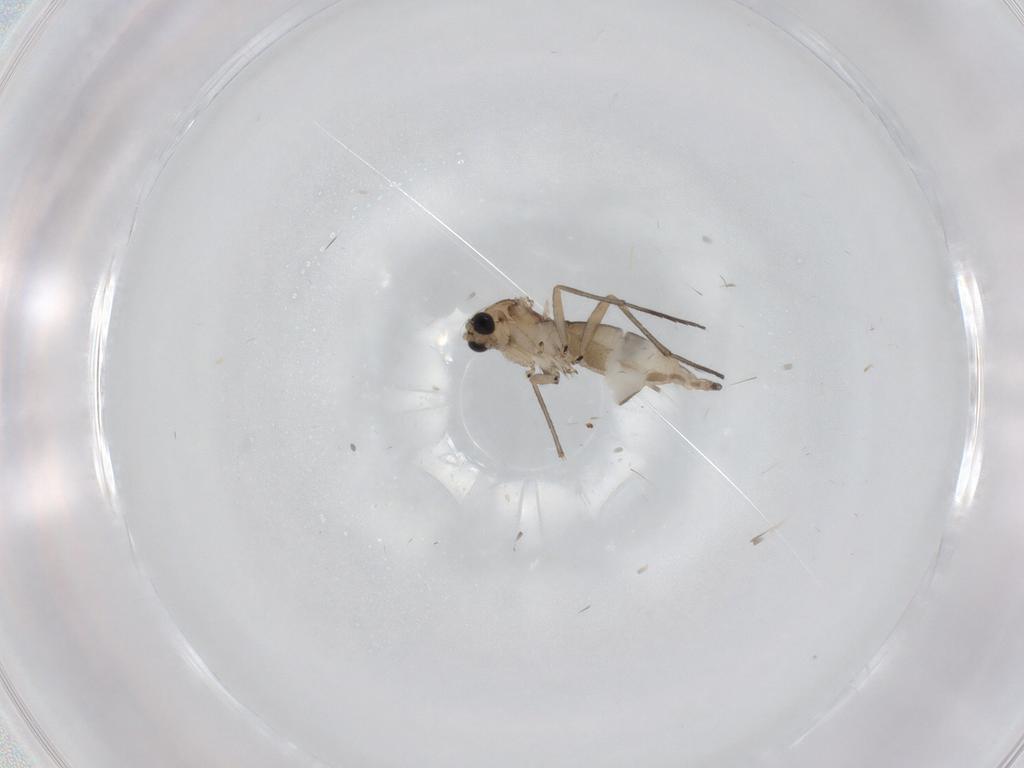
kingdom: Animalia
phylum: Arthropoda
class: Insecta
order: Diptera
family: Sciaridae
